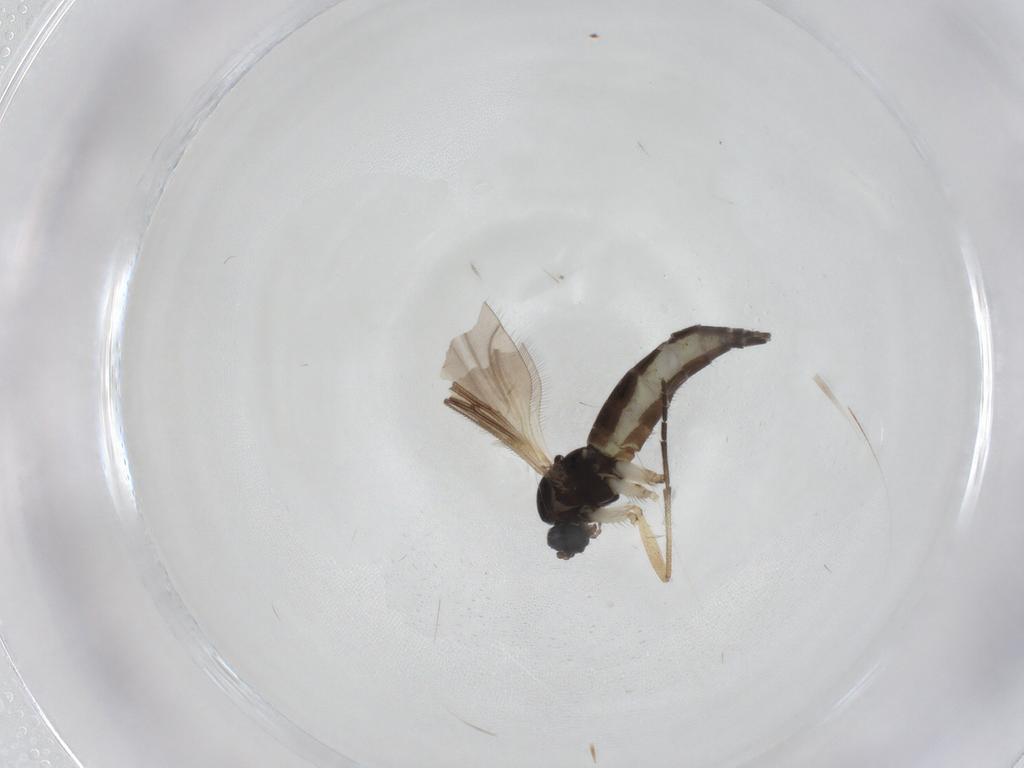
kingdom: Animalia
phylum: Arthropoda
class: Insecta
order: Diptera
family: Sciaridae
